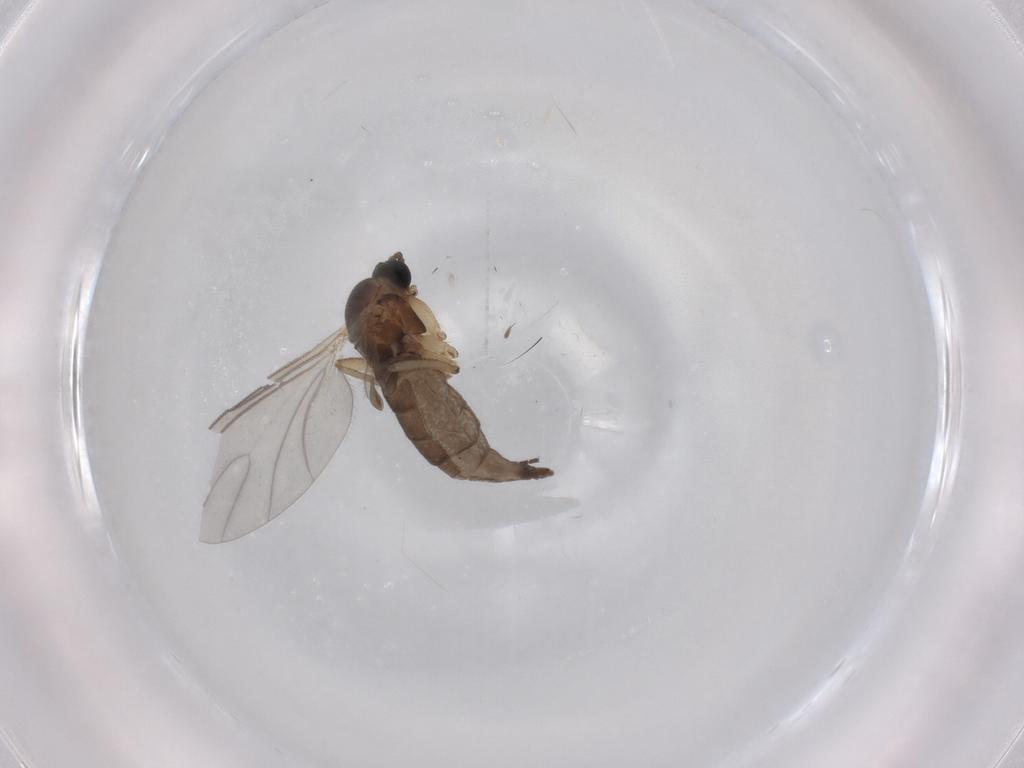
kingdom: Animalia
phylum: Arthropoda
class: Insecta
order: Diptera
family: Sciaridae
